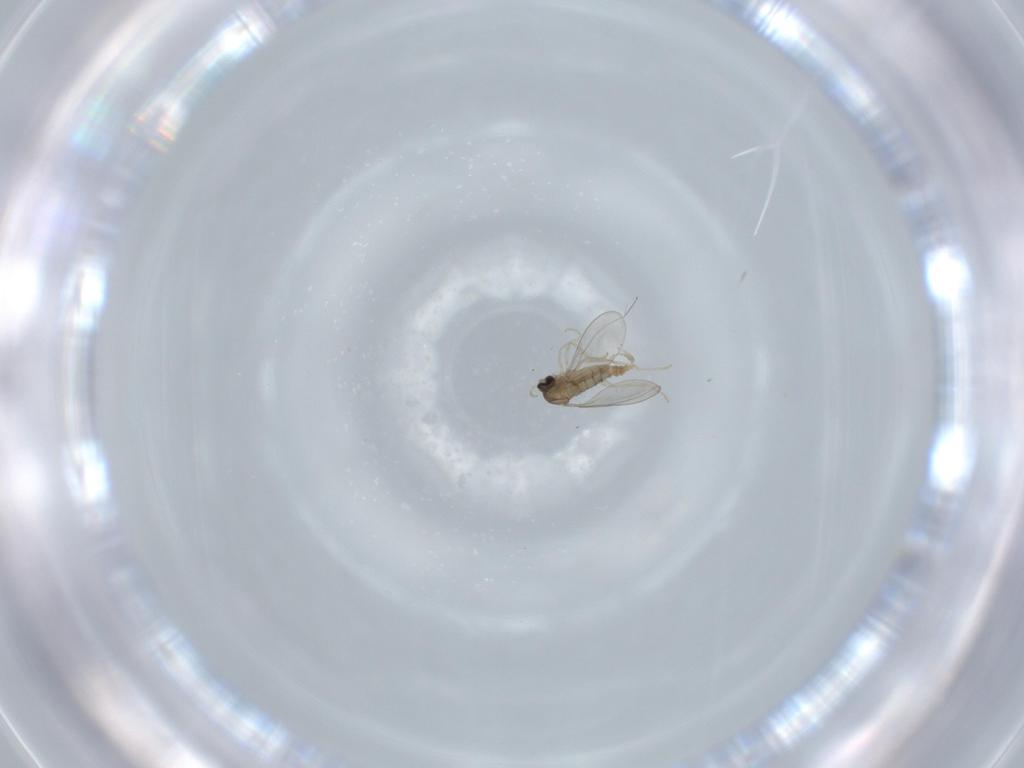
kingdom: Animalia
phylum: Arthropoda
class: Insecta
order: Diptera
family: Cecidomyiidae
